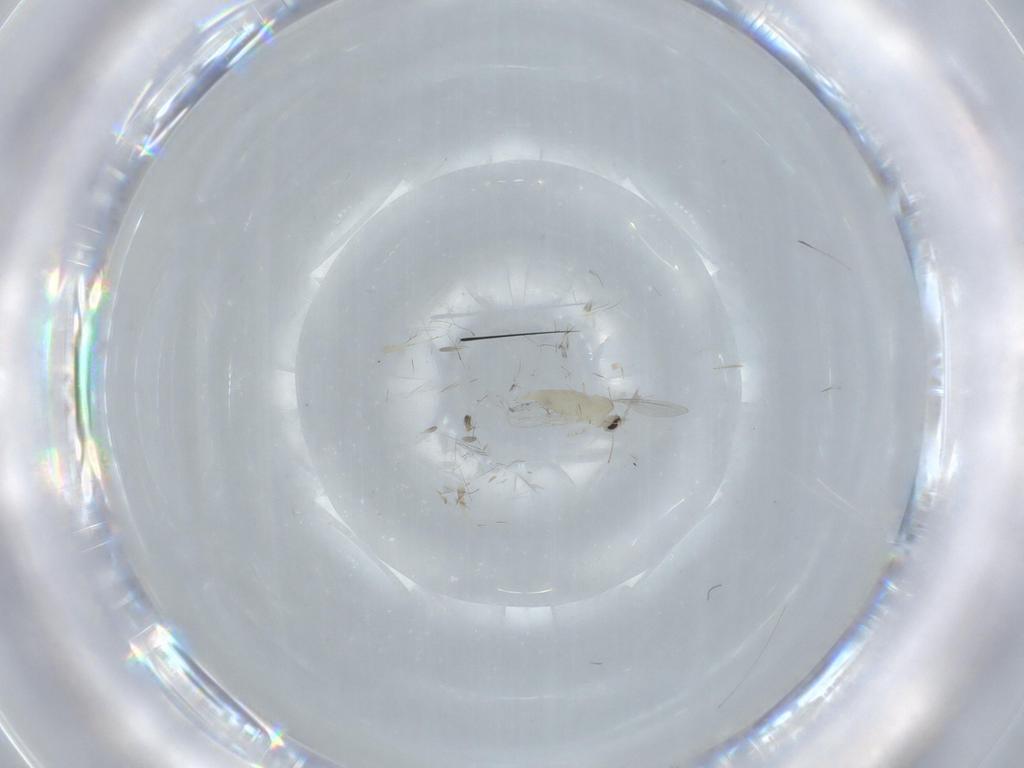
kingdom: Animalia
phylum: Arthropoda
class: Insecta
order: Diptera
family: Cecidomyiidae
